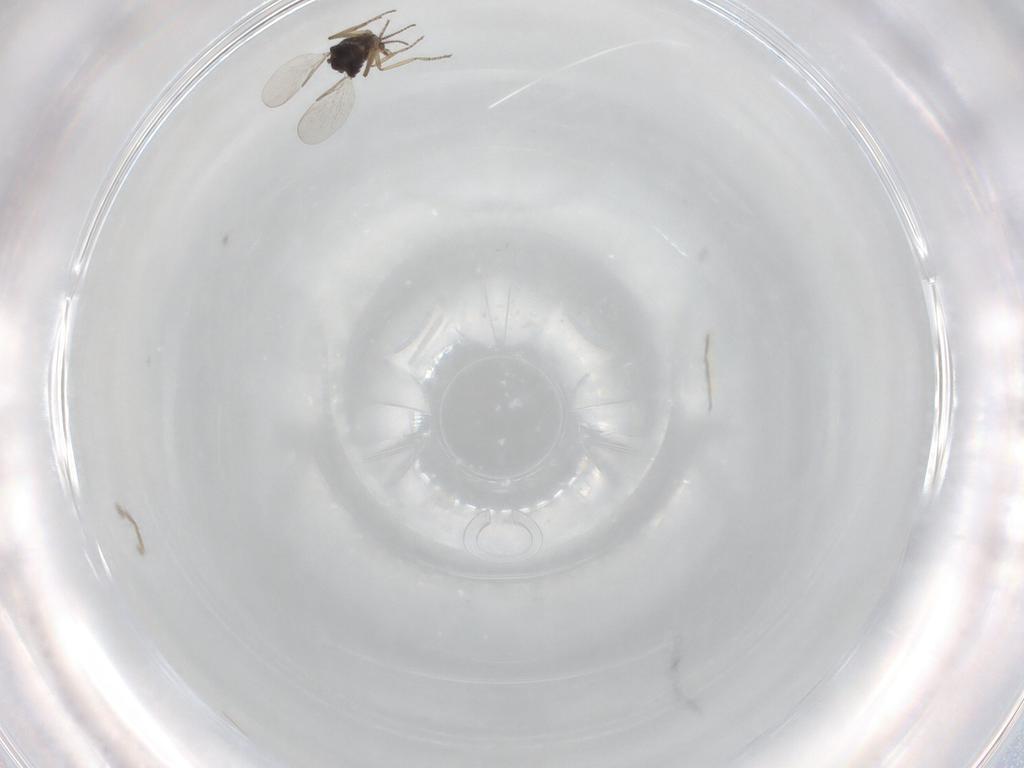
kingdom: Animalia
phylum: Arthropoda
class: Insecta
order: Diptera
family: Ceratopogonidae
